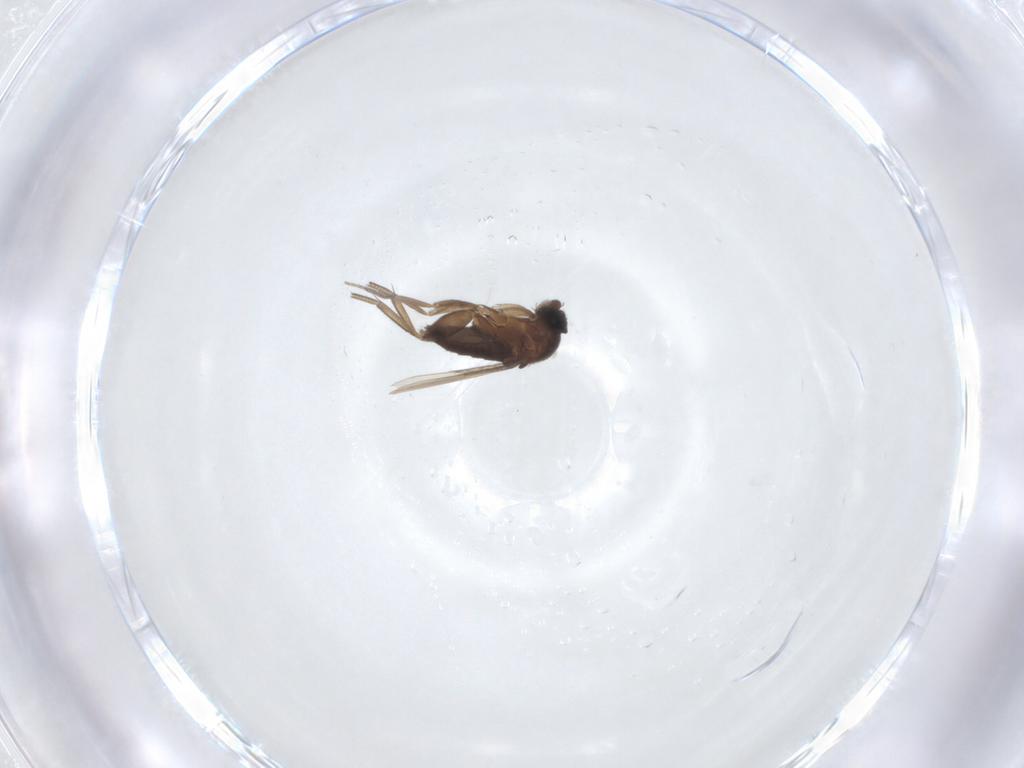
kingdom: Animalia
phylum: Arthropoda
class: Insecta
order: Diptera
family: Phoridae
